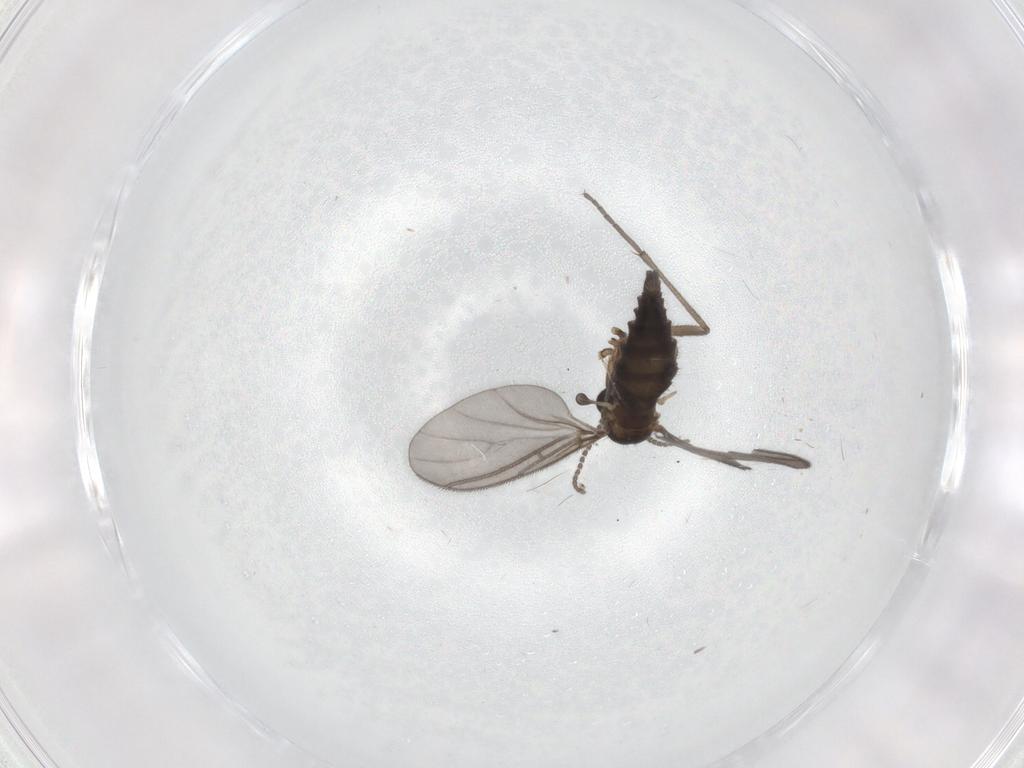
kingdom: Animalia
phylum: Arthropoda
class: Insecta
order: Diptera
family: Sciaridae
